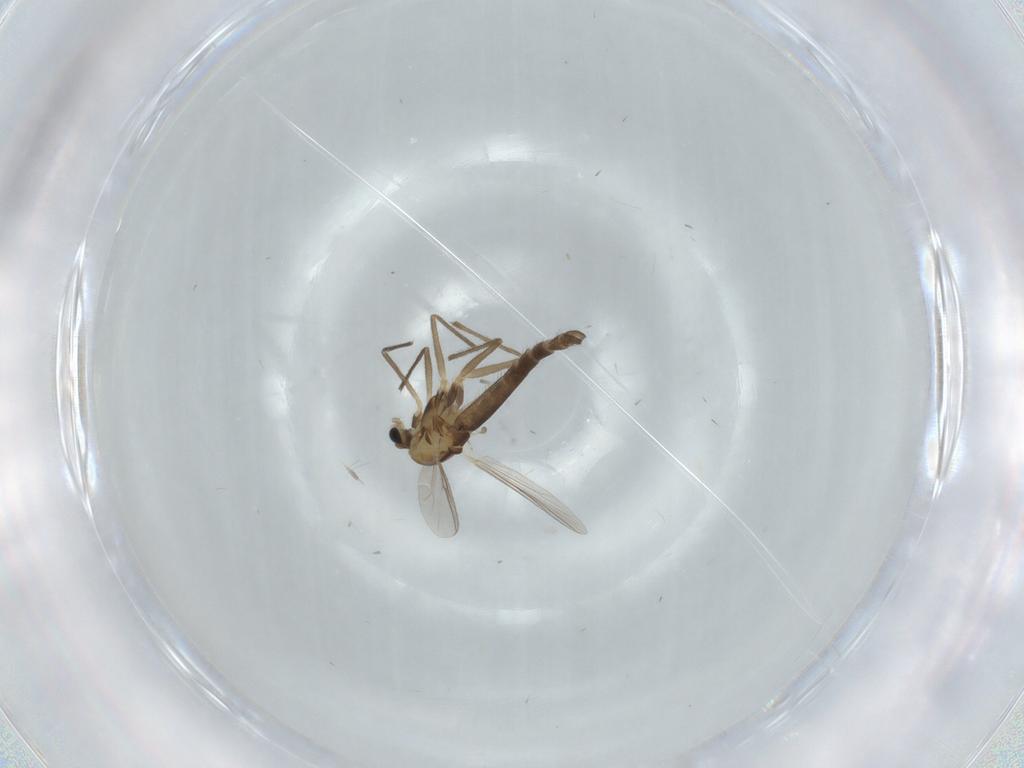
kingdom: Animalia
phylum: Arthropoda
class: Insecta
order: Diptera
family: Chironomidae
